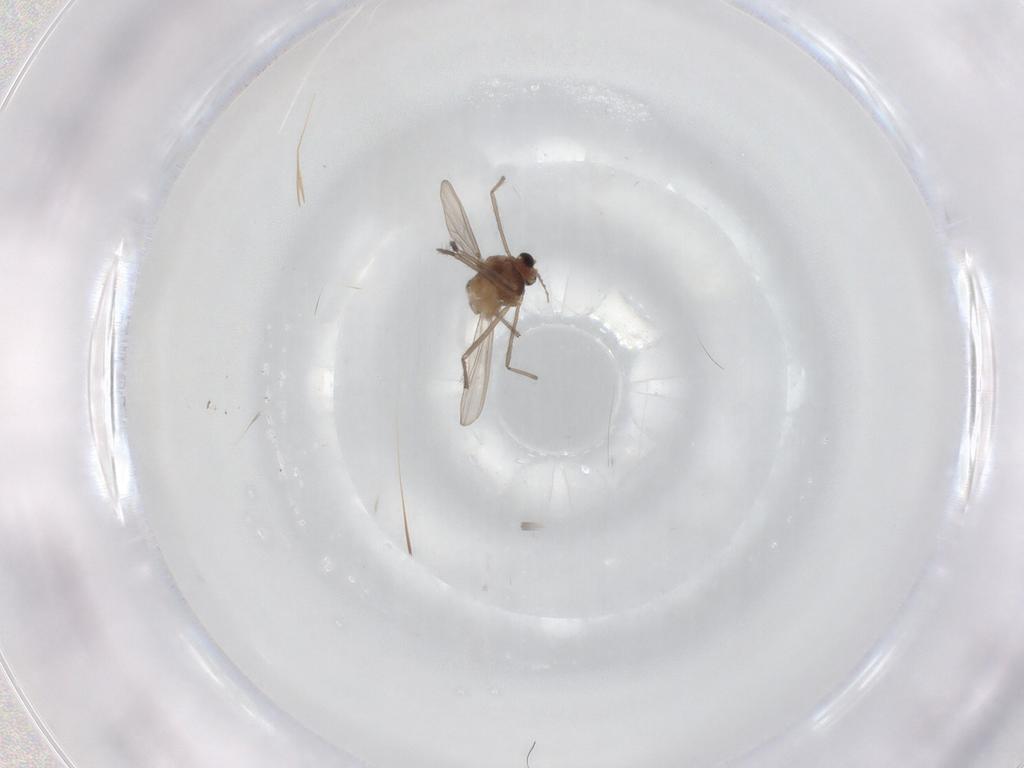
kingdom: Animalia
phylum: Arthropoda
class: Insecta
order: Diptera
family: Chironomidae
